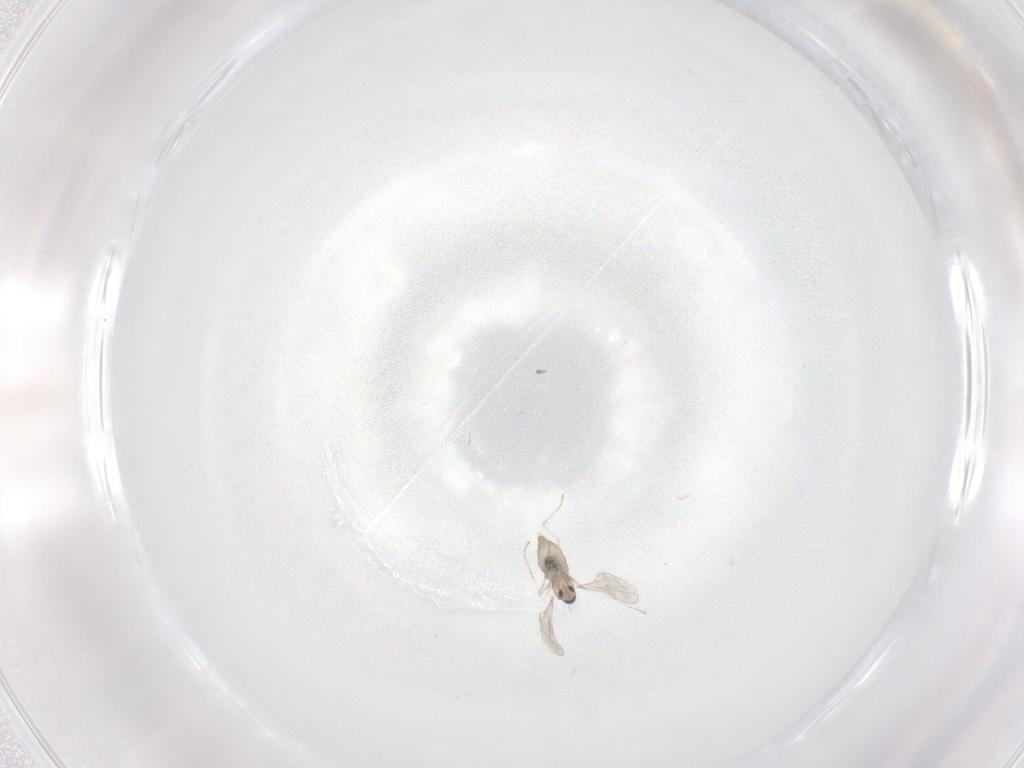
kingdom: Animalia
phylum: Arthropoda
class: Insecta
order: Diptera
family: Cecidomyiidae
